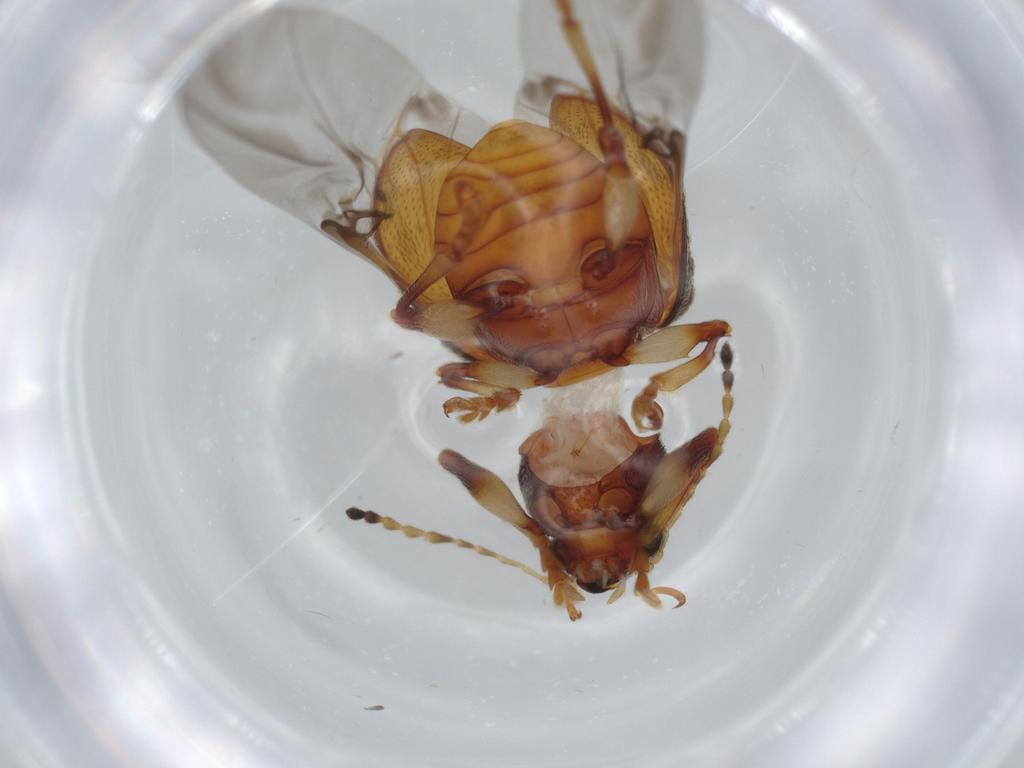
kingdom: Animalia
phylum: Arthropoda
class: Insecta
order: Coleoptera
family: Chrysomelidae
